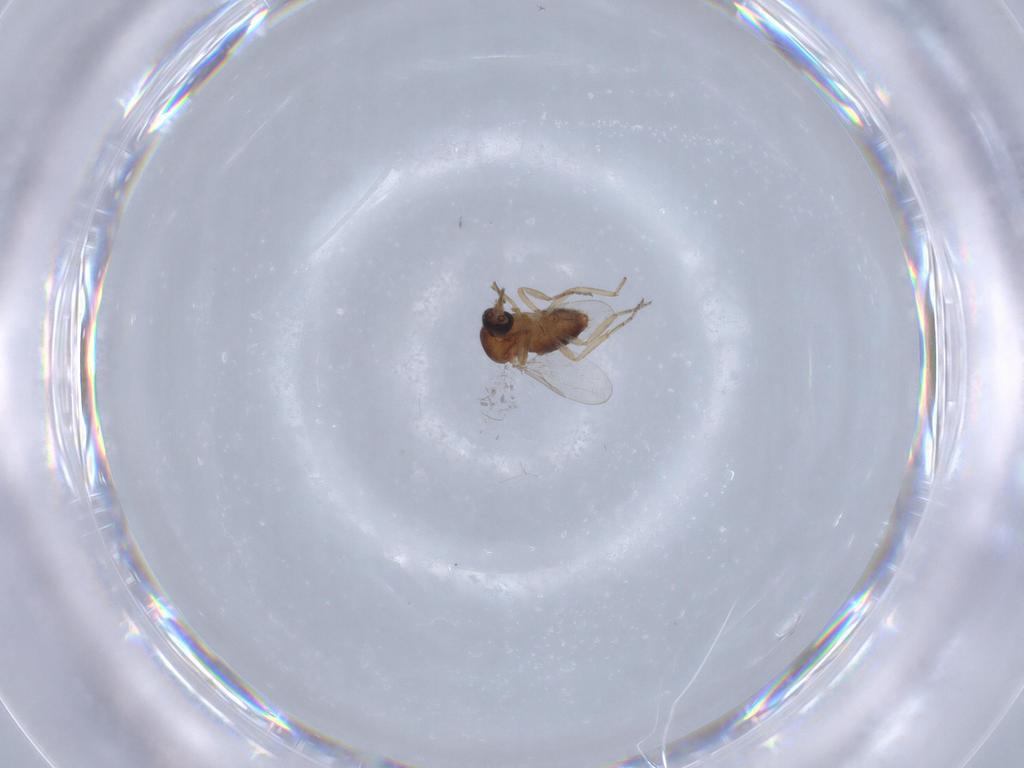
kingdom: Animalia
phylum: Arthropoda
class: Insecta
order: Diptera
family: Ceratopogonidae
